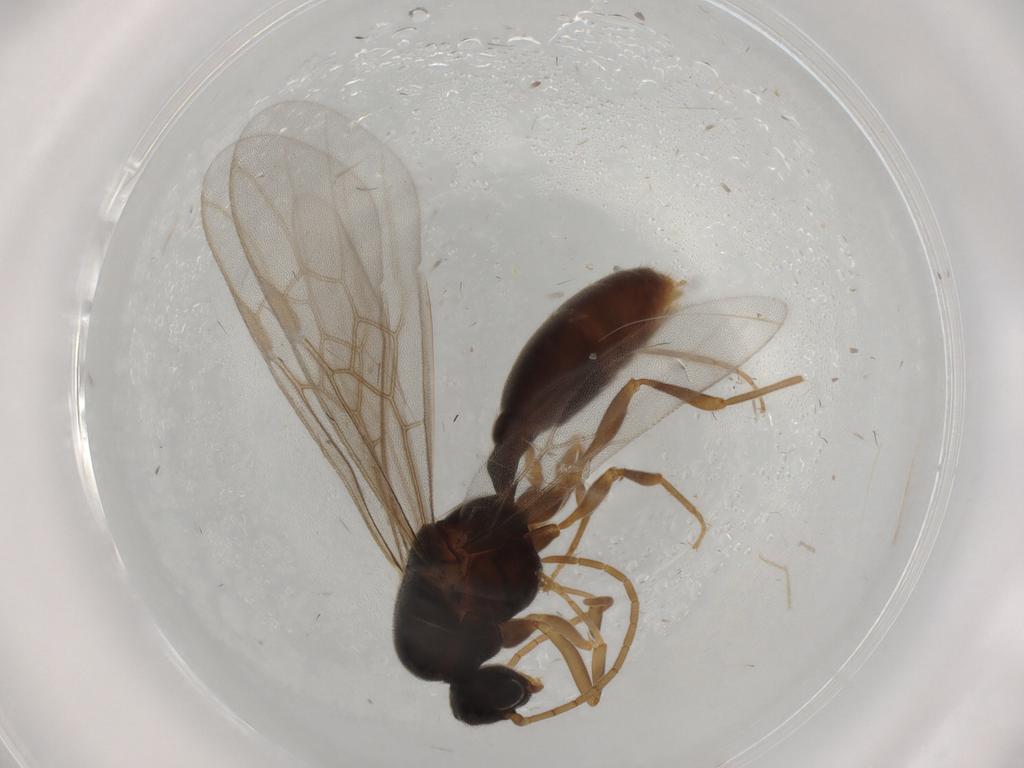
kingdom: Animalia
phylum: Arthropoda
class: Insecta
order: Hymenoptera
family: Formicidae
